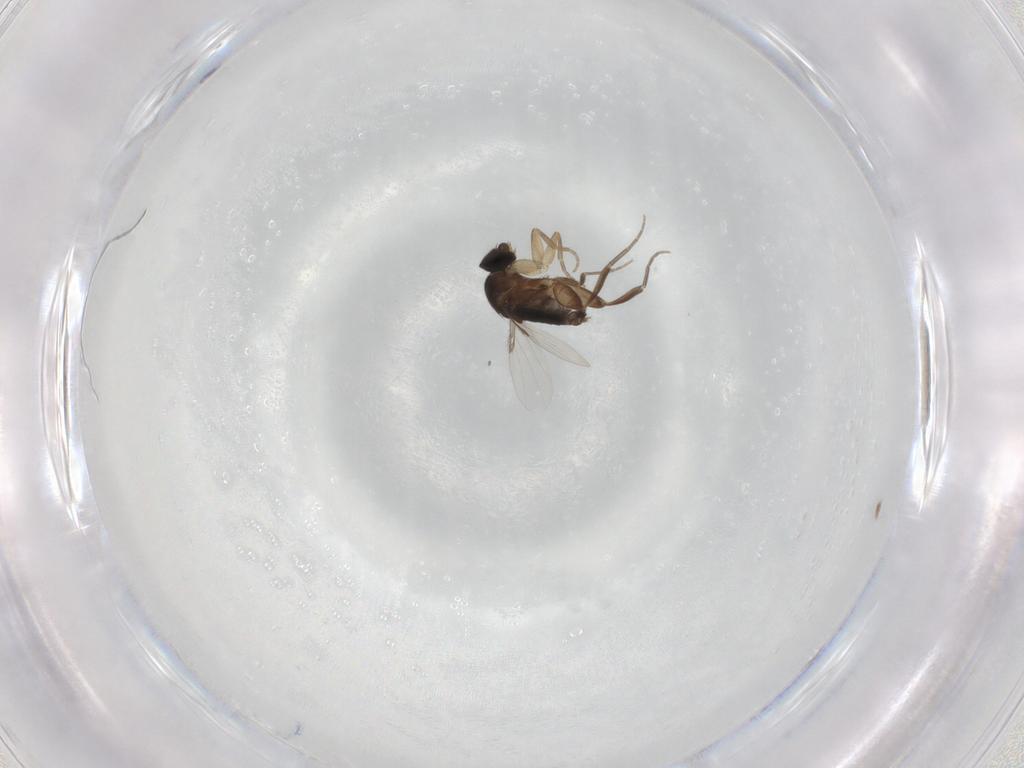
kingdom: Animalia
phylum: Arthropoda
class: Insecta
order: Diptera
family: Phoridae
